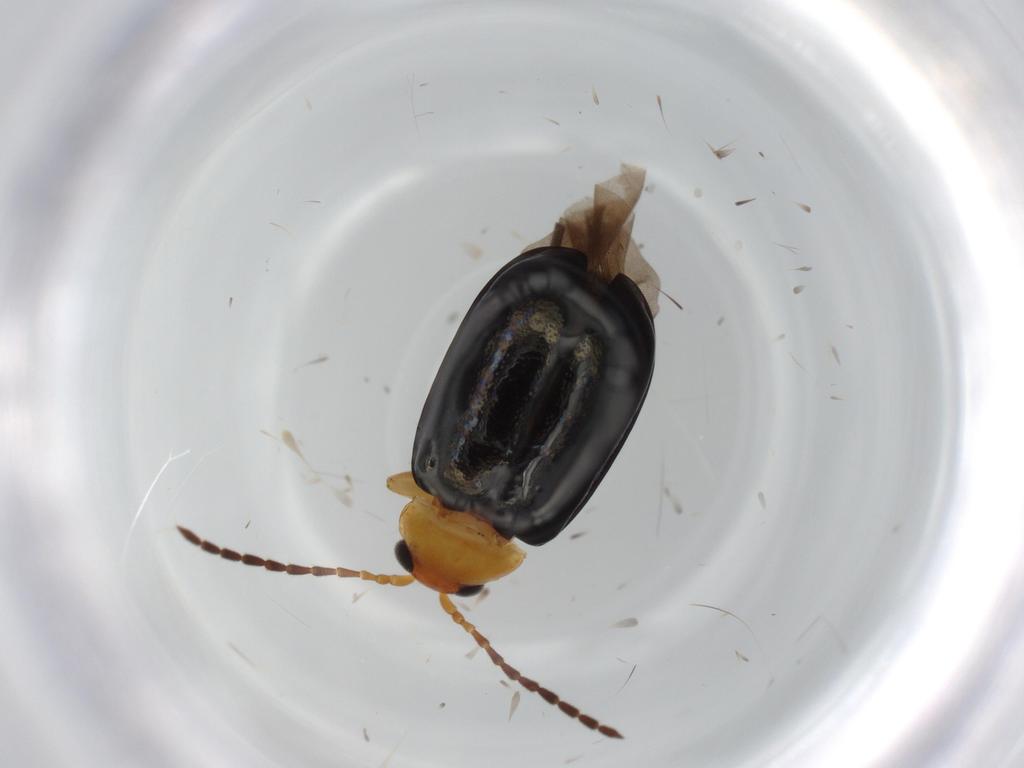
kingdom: Animalia
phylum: Arthropoda
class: Insecta
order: Coleoptera
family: Chrysomelidae
